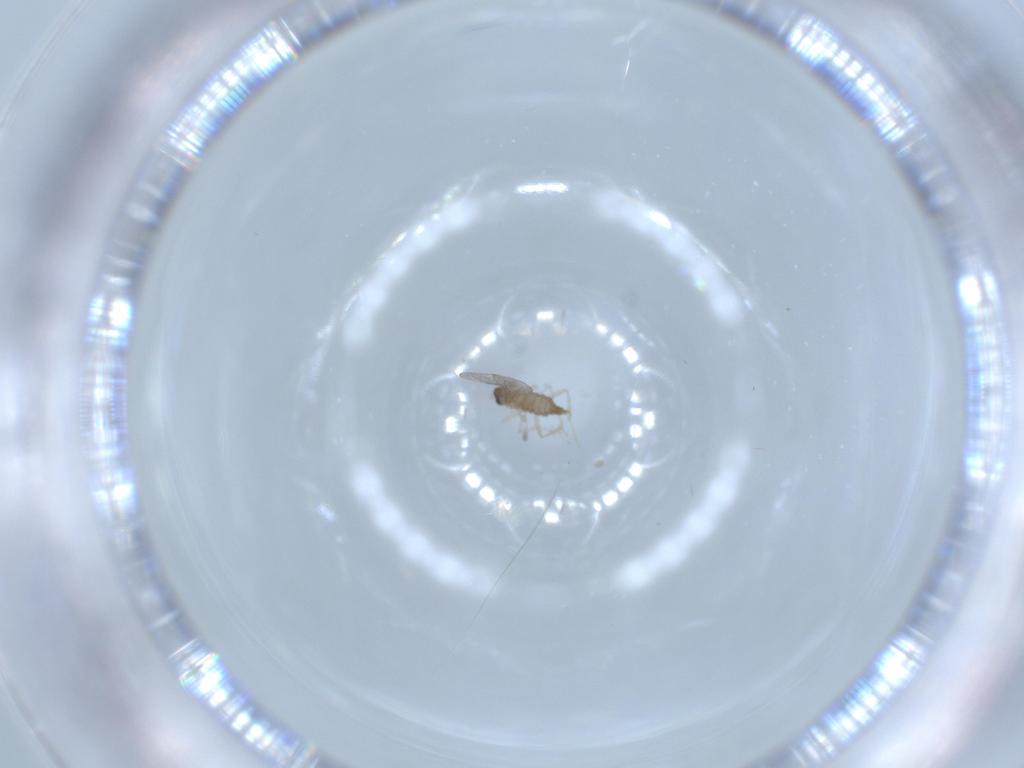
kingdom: Animalia
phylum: Arthropoda
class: Insecta
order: Diptera
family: Cecidomyiidae
